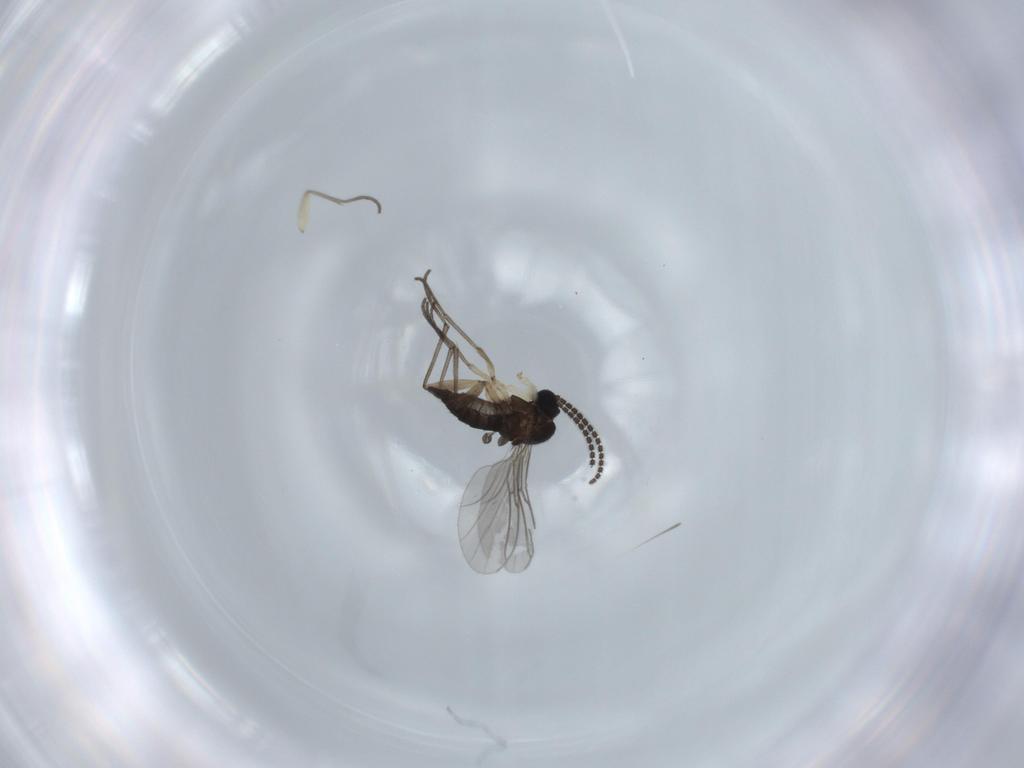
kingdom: Animalia
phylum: Arthropoda
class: Insecta
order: Diptera
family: Sciaridae
